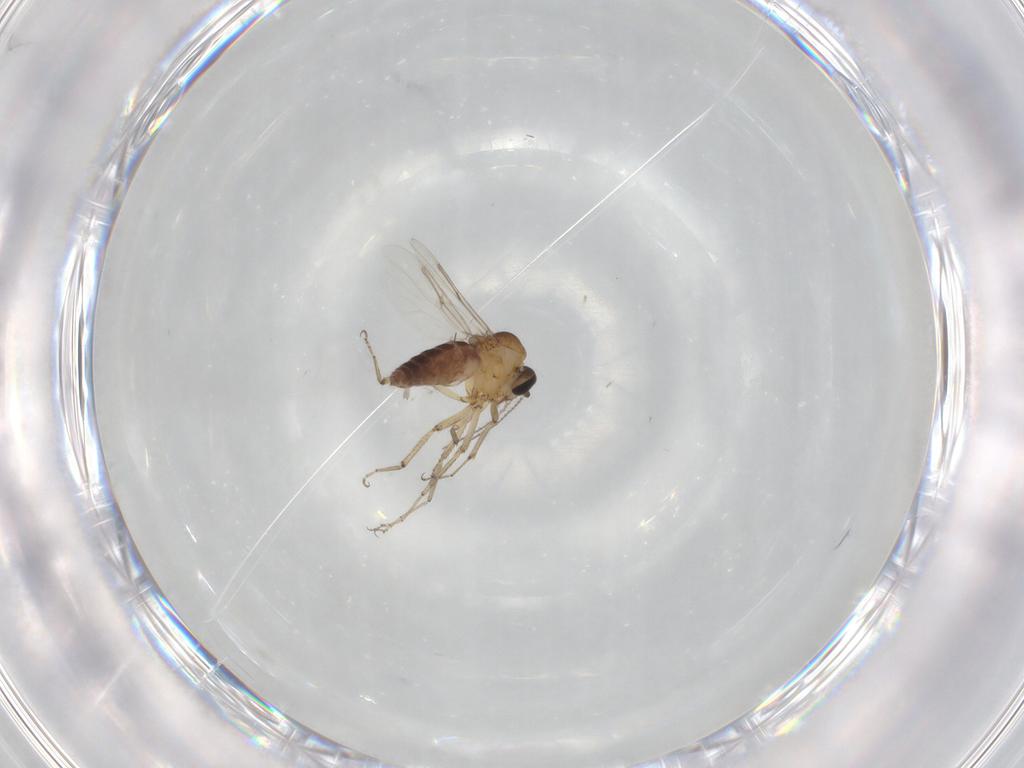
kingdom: Animalia
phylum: Arthropoda
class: Insecta
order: Diptera
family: Ceratopogonidae
